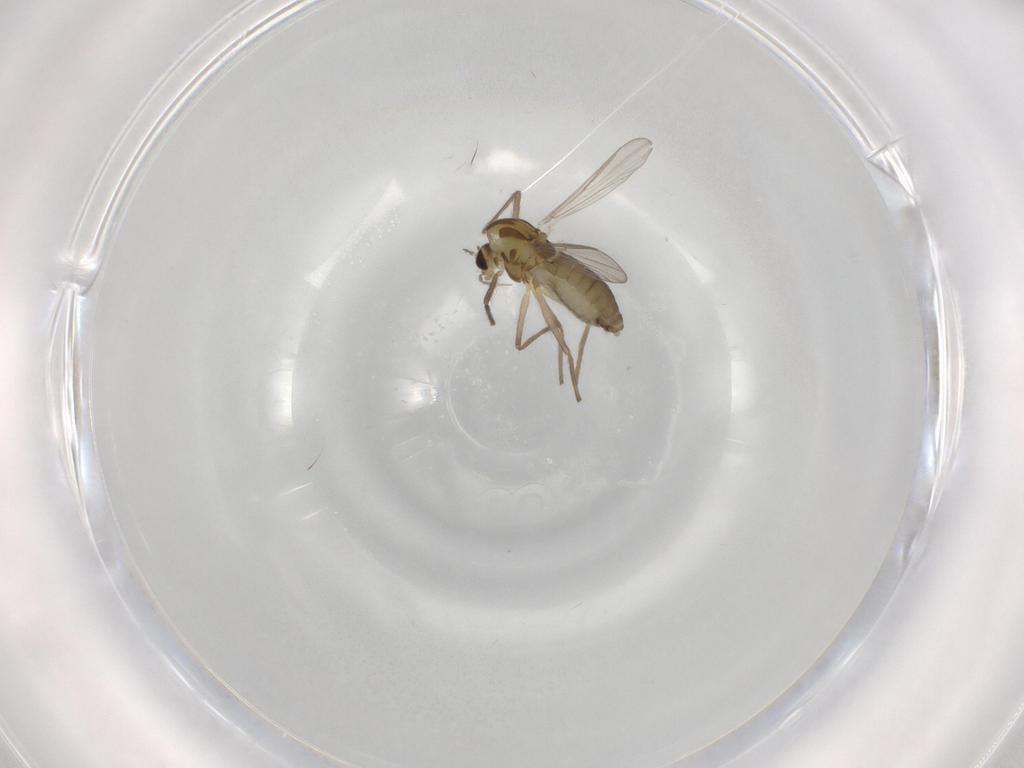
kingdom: Animalia
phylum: Arthropoda
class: Insecta
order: Diptera
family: Chironomidae
